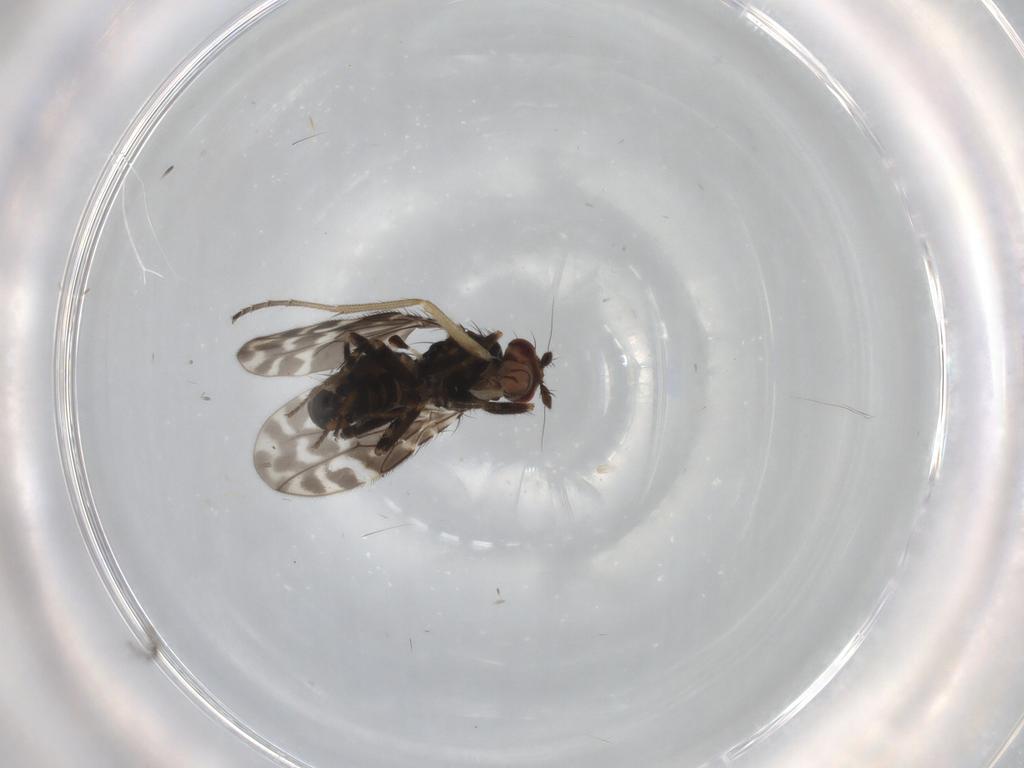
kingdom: Animalia
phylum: Arthropoda
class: Insecta
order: Diptera
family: Sphaeroceridae
